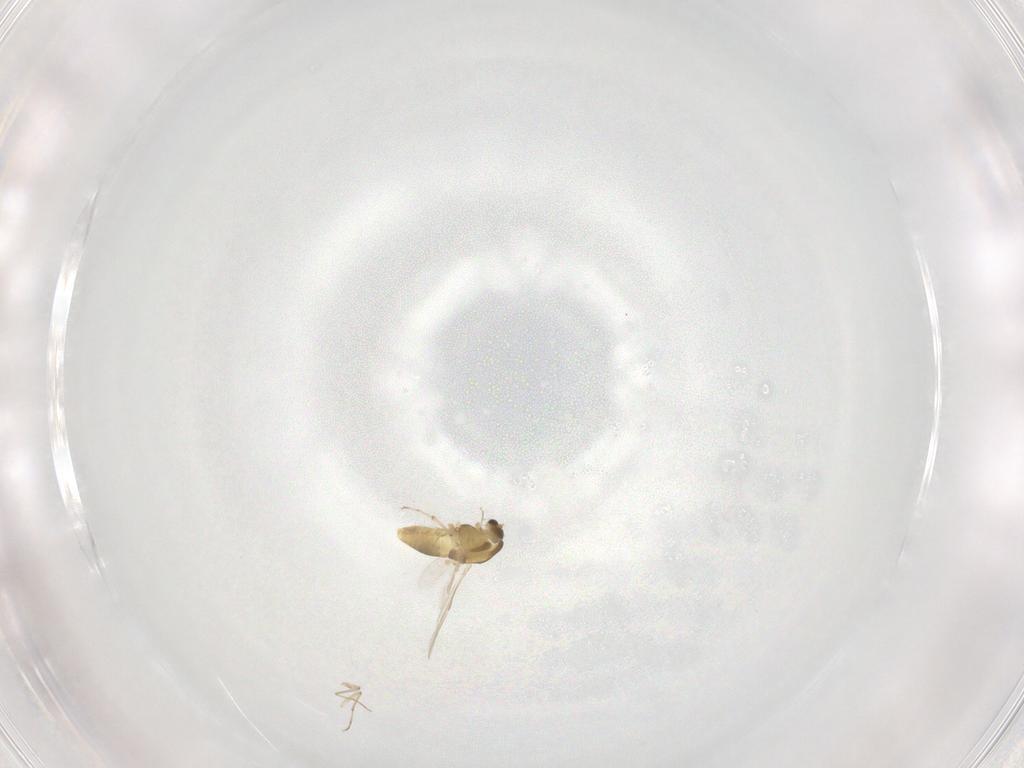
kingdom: Animalia
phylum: Arthropoda
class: Insecta
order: Diptera
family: Chironomidae
